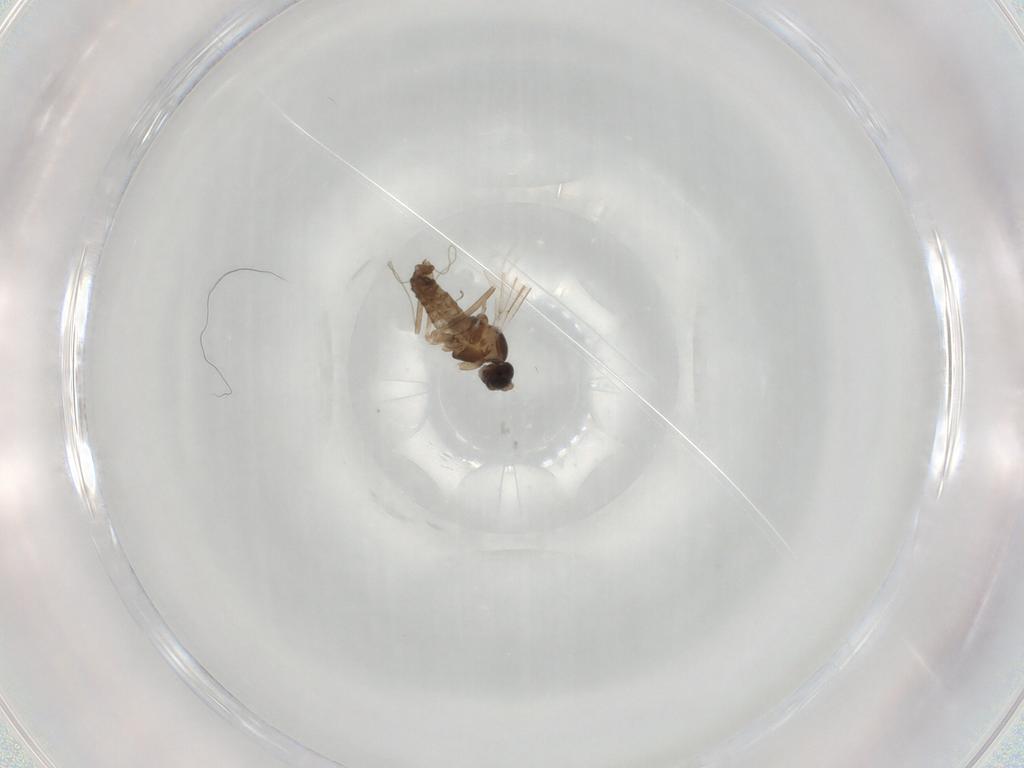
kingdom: Animalia
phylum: Arthropoda
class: Insecta
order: Diptera
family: Cecidomyiidae
